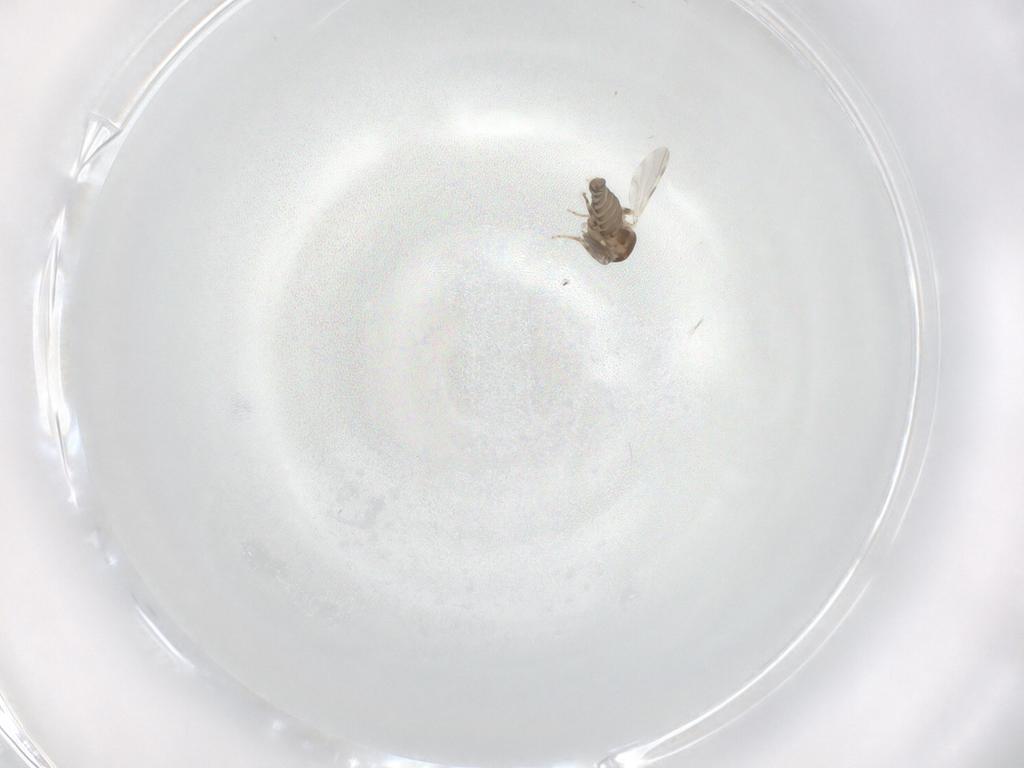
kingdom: Animalia
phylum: Arthropoda
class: Insecta
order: Diptera
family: Ceratopogonidae
